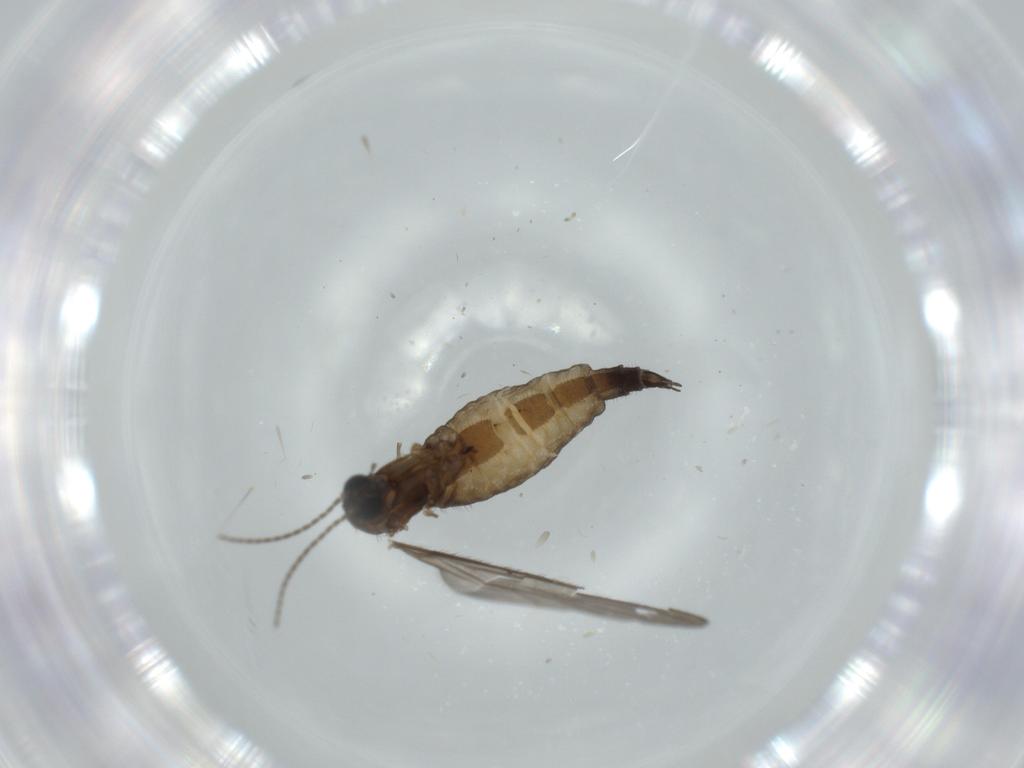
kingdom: Animalia
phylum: Arthropoda
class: Insecta
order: Diptera
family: Sciaridae
